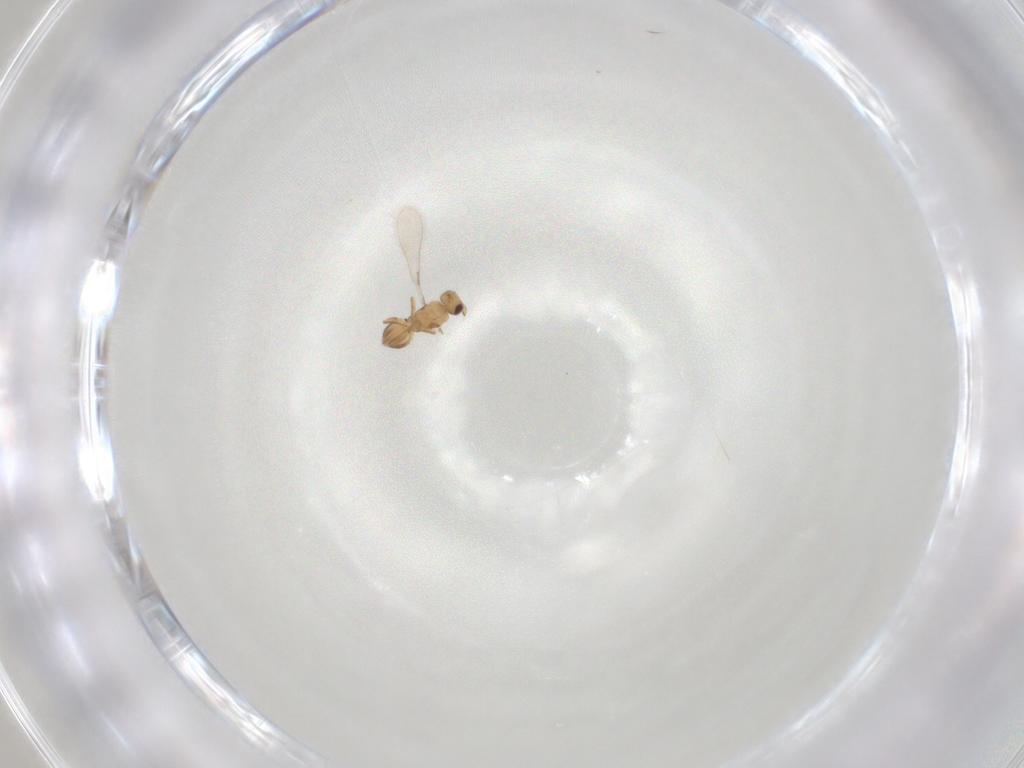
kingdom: Animalia
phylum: Arthropoda
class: Insecta
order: Hymenoptera
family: Mymaridae
